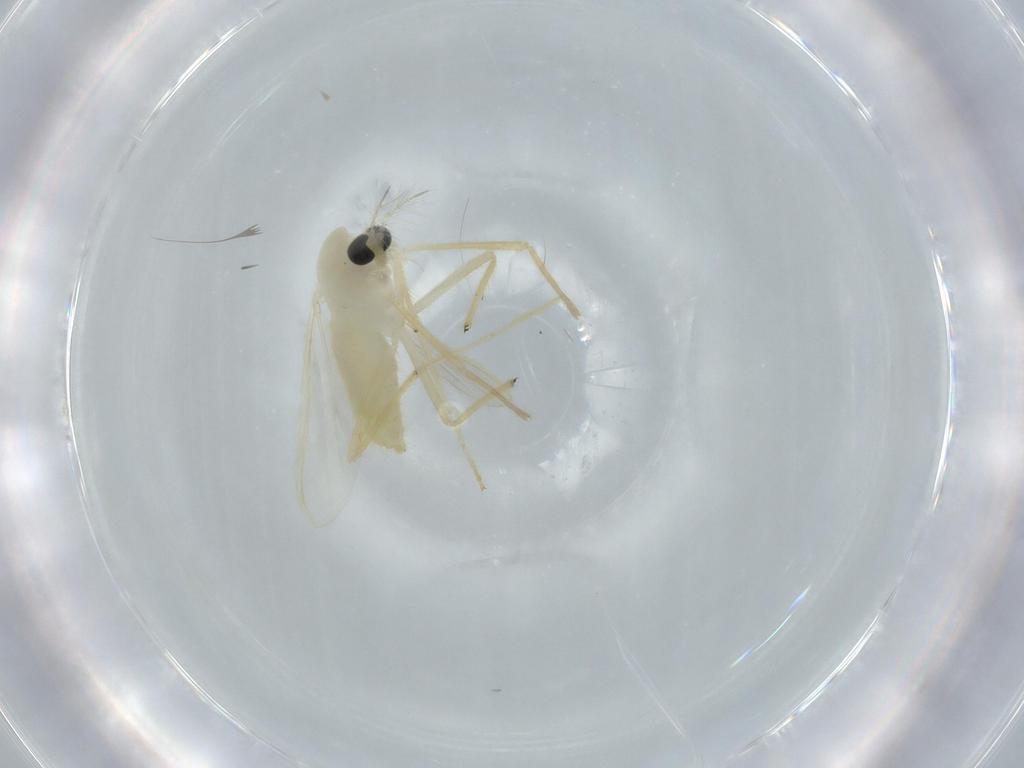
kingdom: Animalia
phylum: Arthropoda
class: Insecta
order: Diptera
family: Chironomidae
